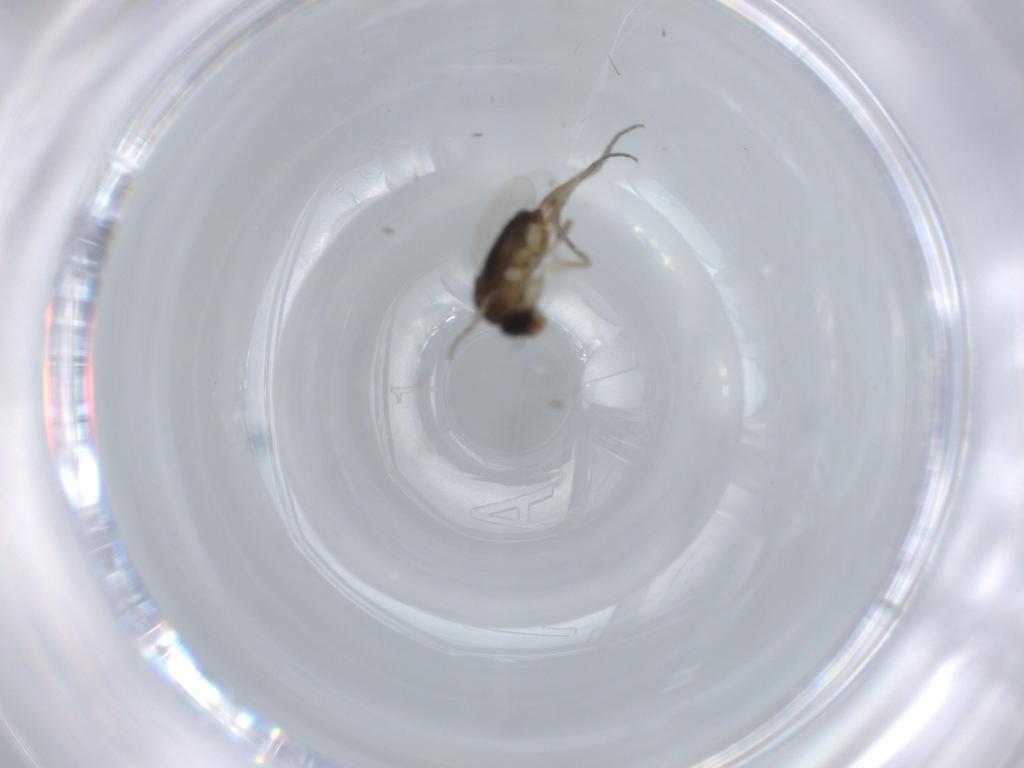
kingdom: Animalia
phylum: Arthropoda
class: Insecta
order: Diptera
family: Phoridae
